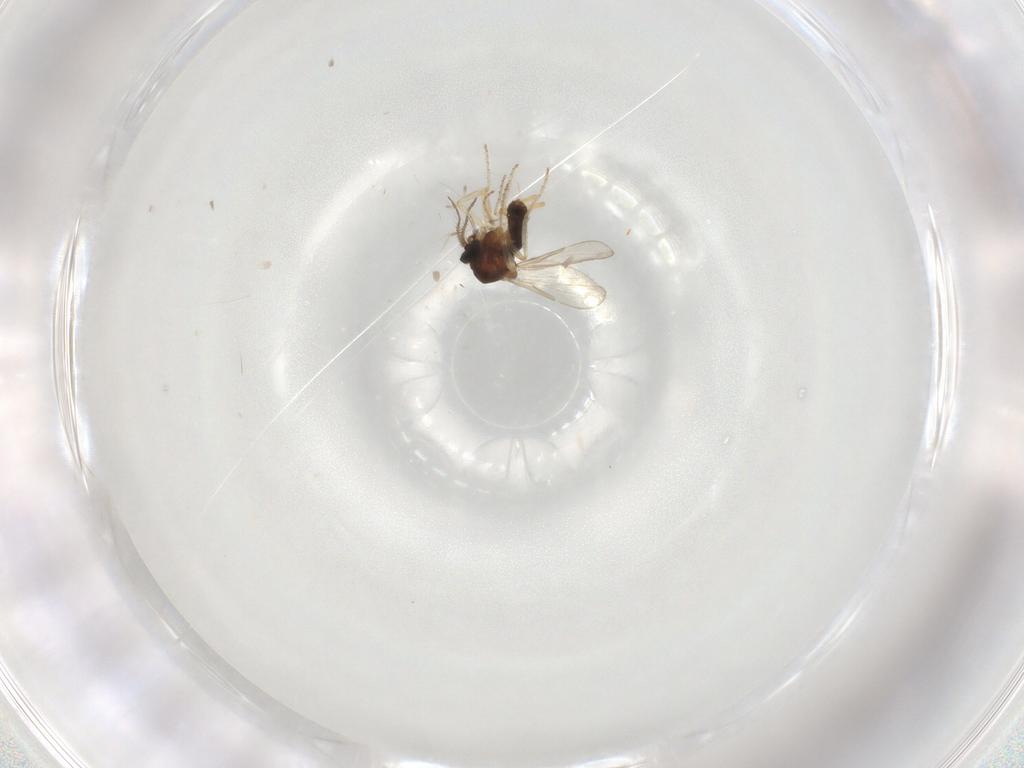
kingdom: Animalia
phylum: Arthropoda
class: Insecta
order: Diptera
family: Ceratopogonidae
